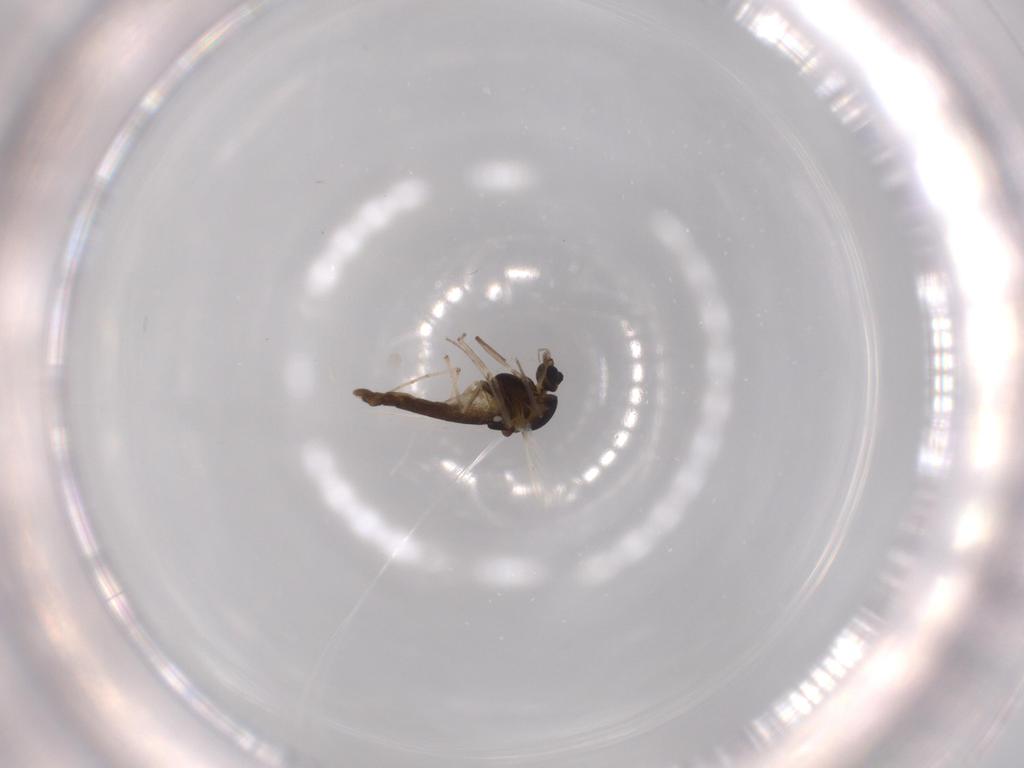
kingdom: Animalia
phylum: Arthropoda
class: Insecta
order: Diptera
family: Chironomidae
